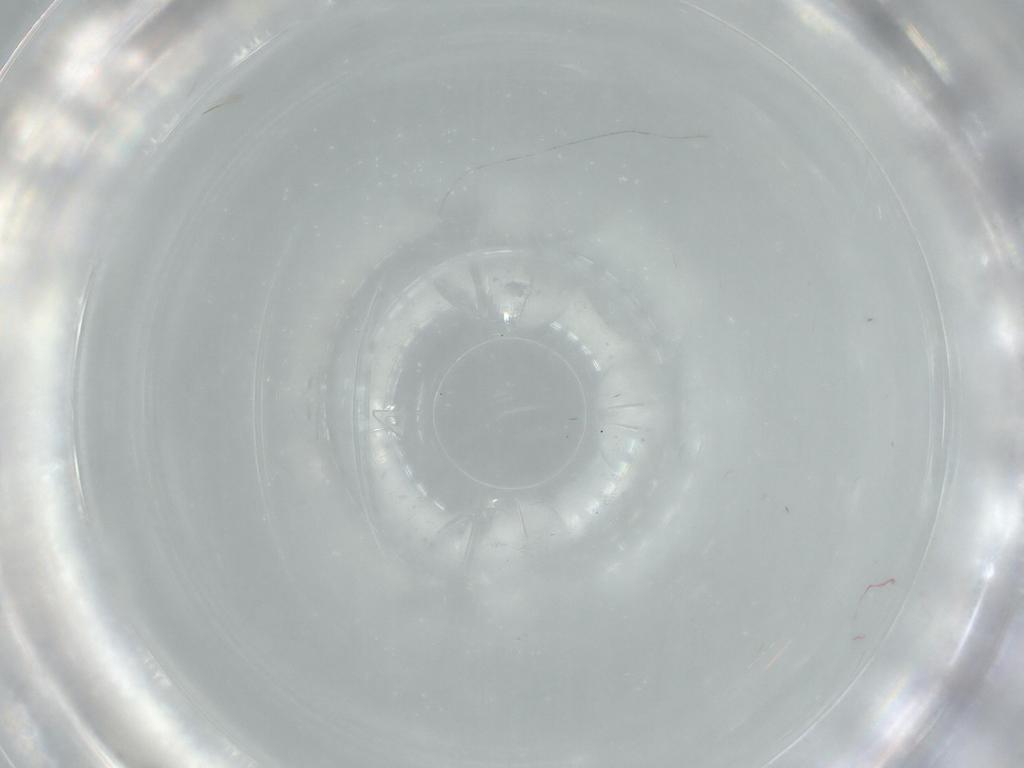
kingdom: Animalia
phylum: Arthropoda
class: Insecta
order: Diptera
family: Sciaridae
